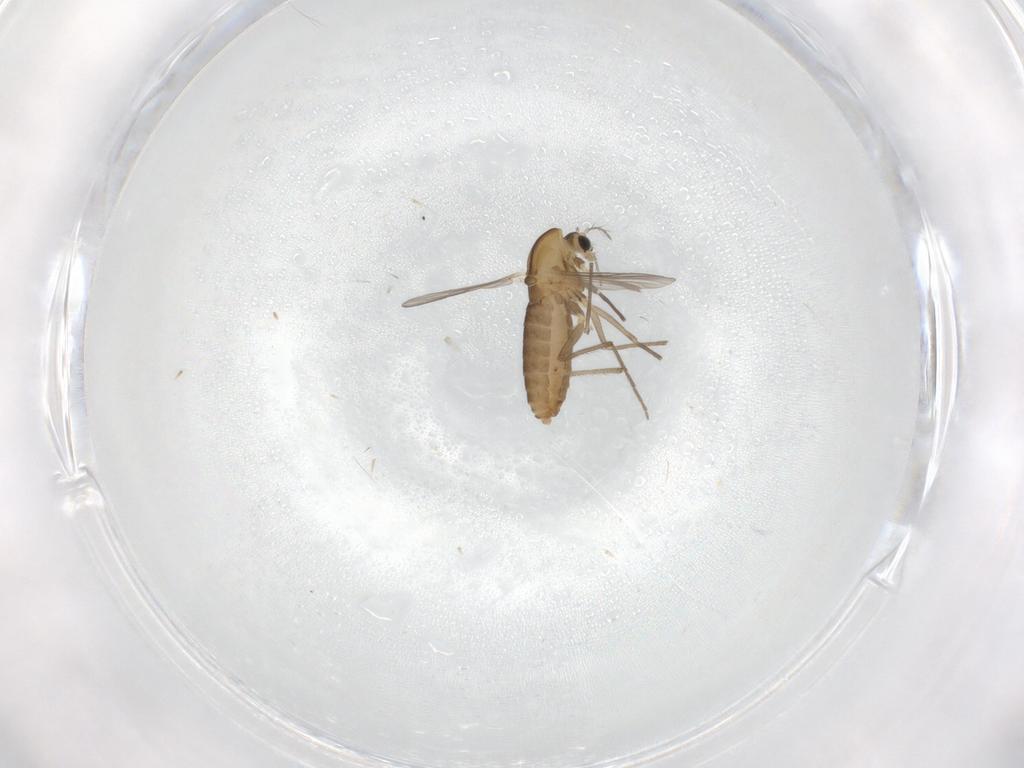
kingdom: Animalia
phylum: Arthropoda
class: Insecta
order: Diptera
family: Chironomidae
